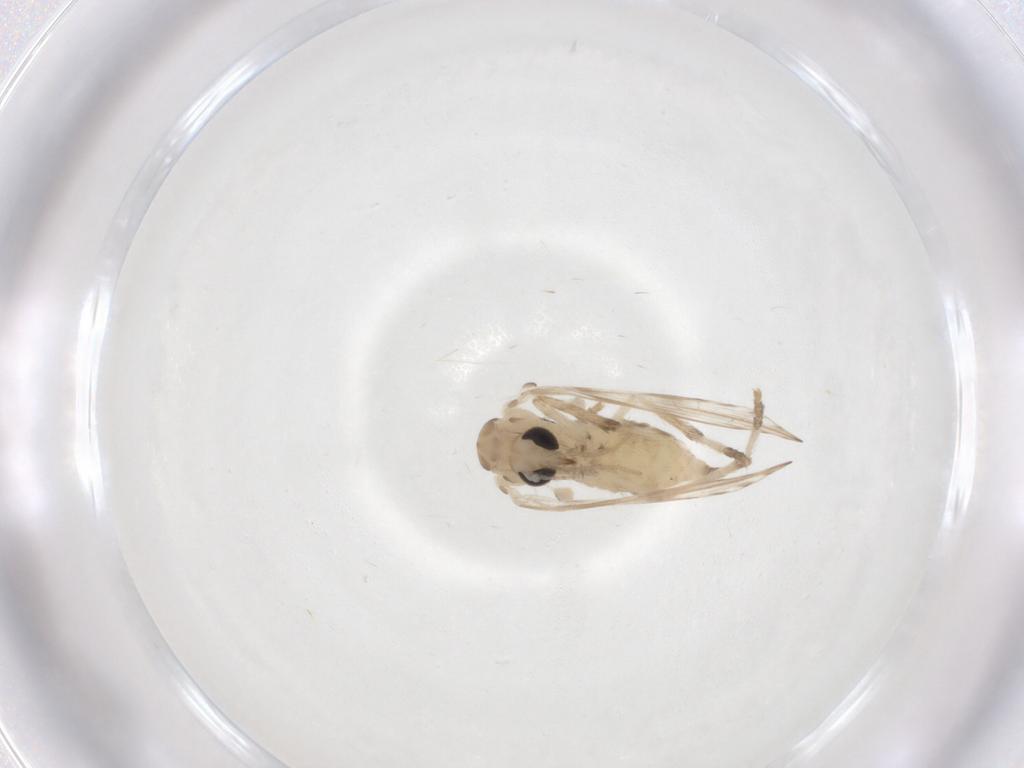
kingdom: Animalia
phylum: Arthropoda
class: Insecta
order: Diptera
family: Psychodidae
